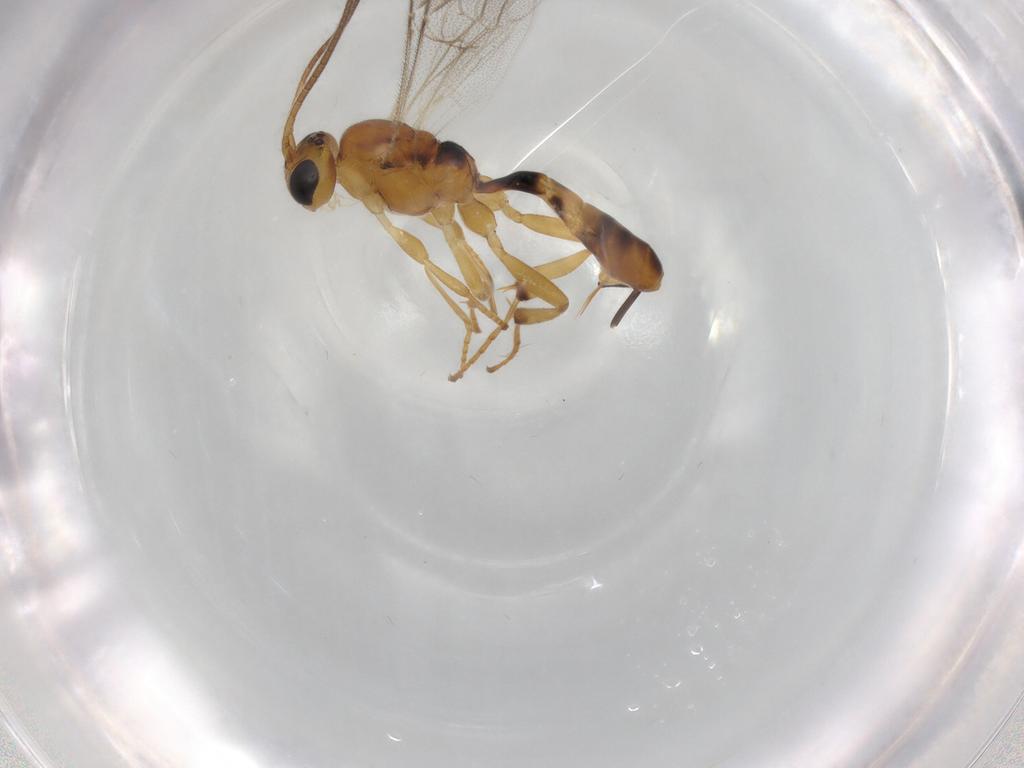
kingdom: Animalia
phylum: Arthropoda
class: Insecta
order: Hymenoptera
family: Ichneumonidae
